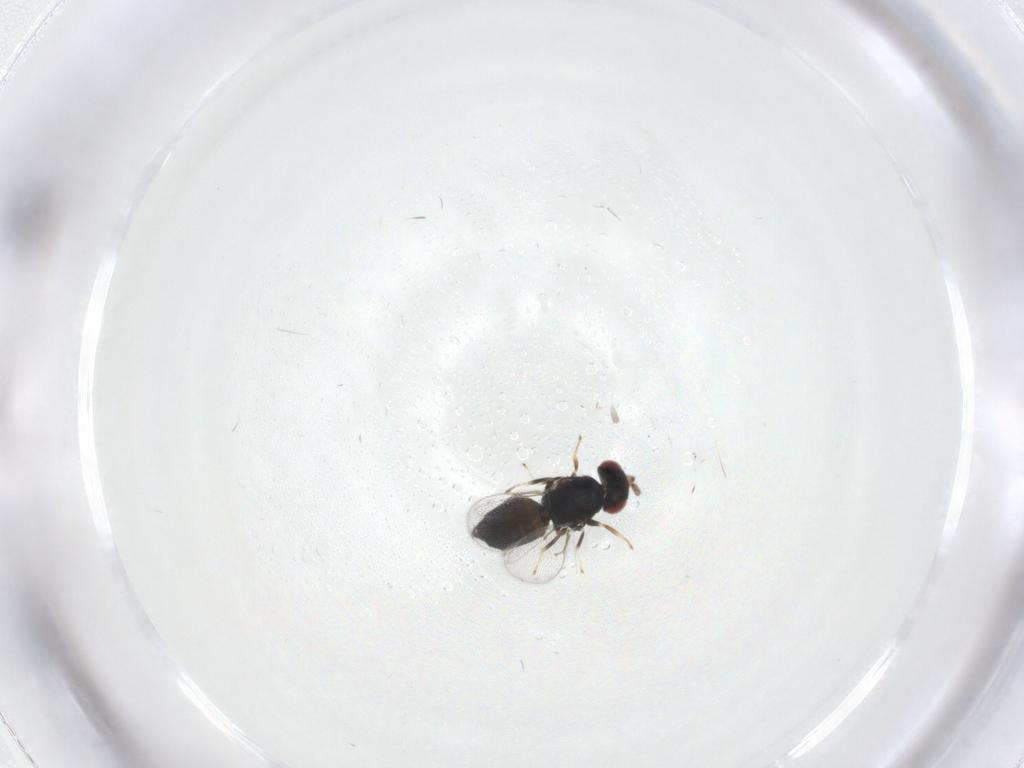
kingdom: Animalia
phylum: Arthropoda
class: Insecta
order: Hymenoptera
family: Eulophidae
